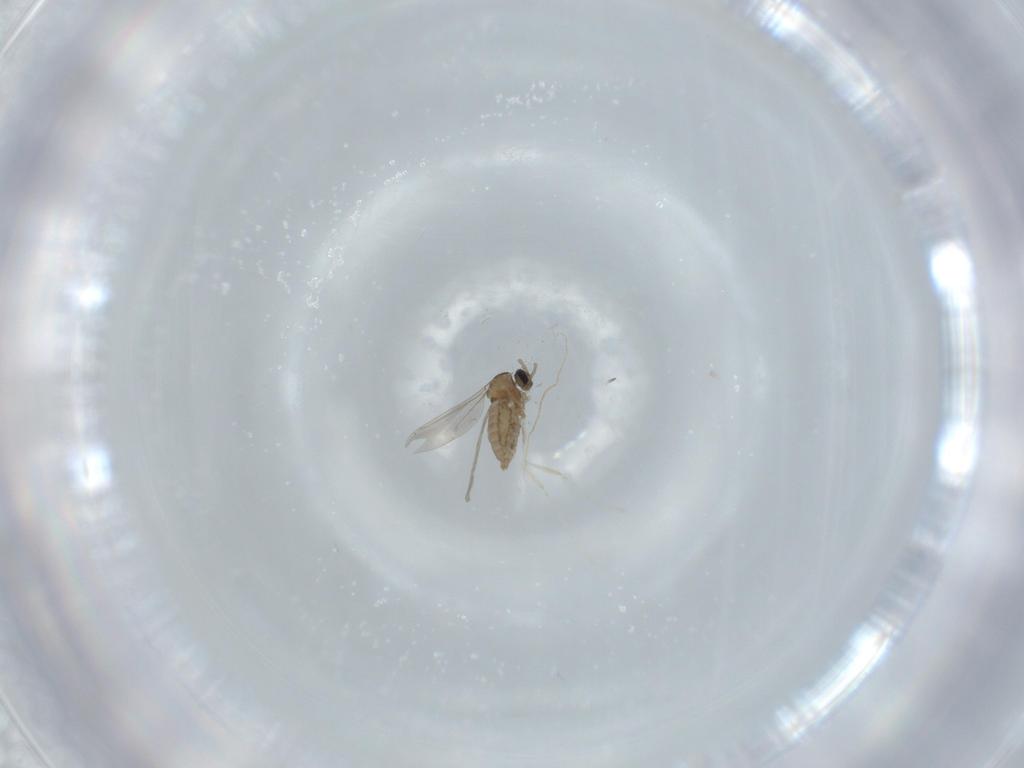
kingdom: Animalia
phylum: Arthropoda
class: Insecta
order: Diptera
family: Cecidomyiidae
